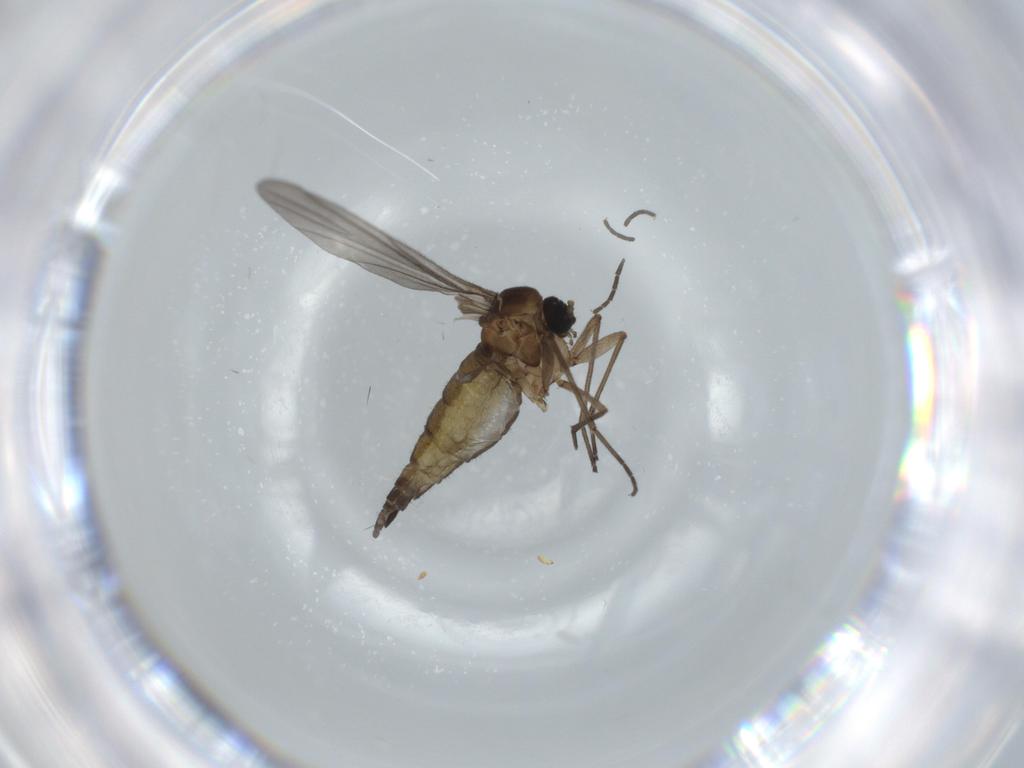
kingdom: Animalia
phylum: Arthropoda
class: Insecta
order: Diptera
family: Sciaridae
